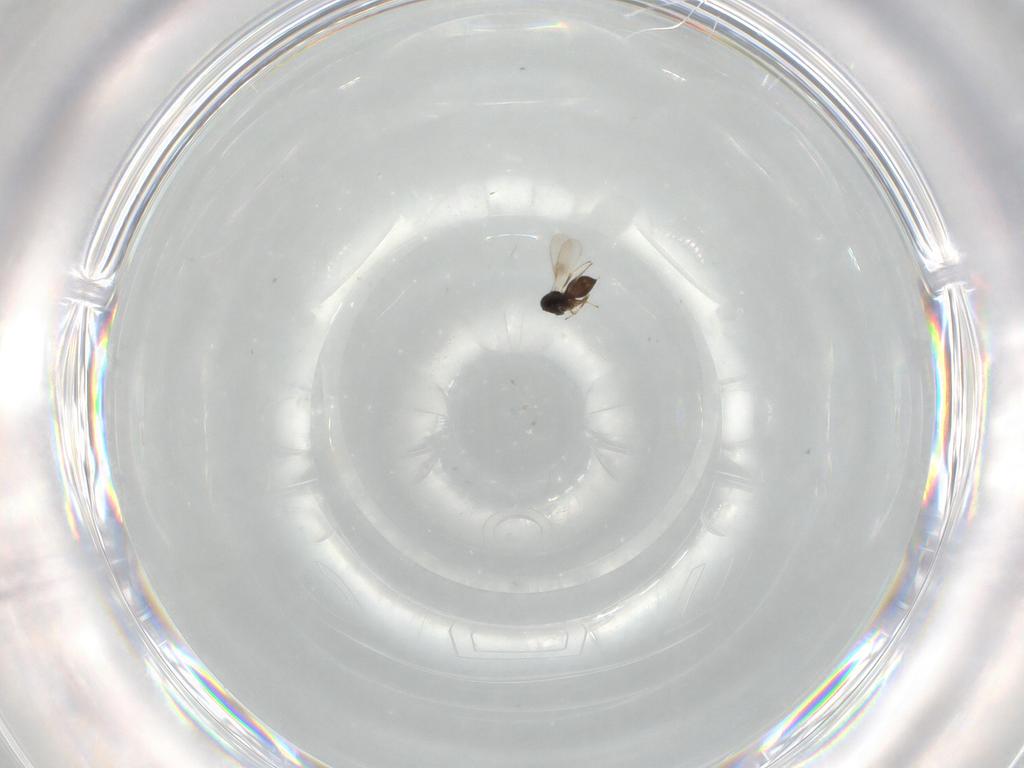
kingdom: Animalia
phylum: Arthropoda
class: Insecta
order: Hymenoptera
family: Scelionidae
